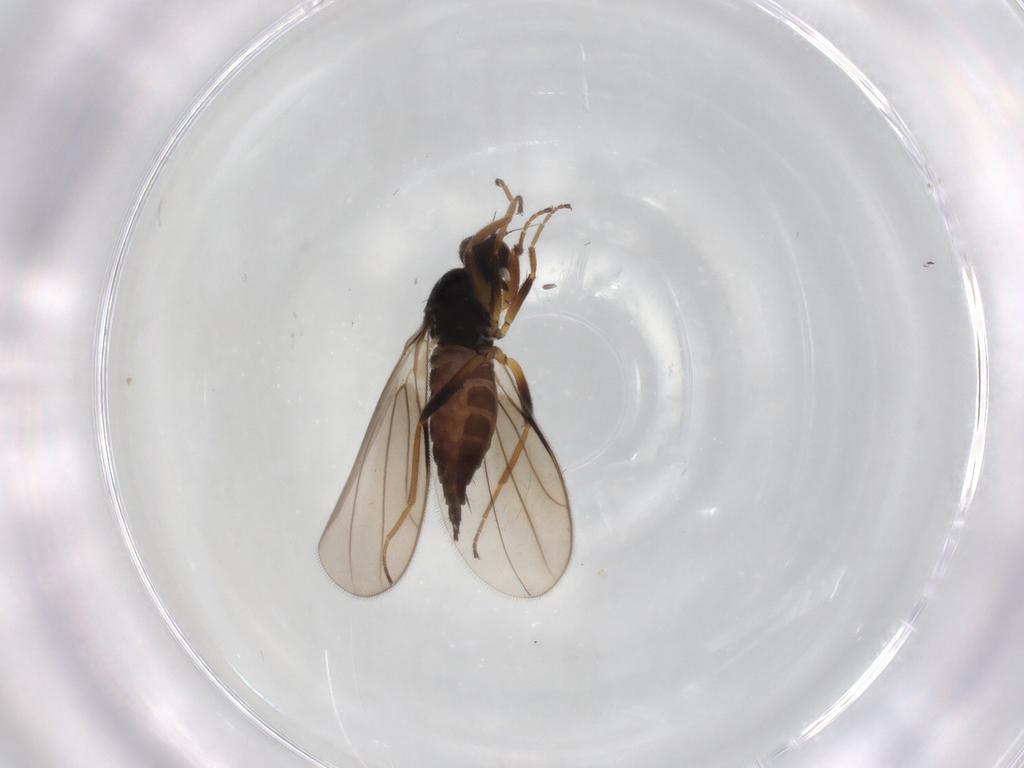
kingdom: Animalia
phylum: Arthropoda
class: Insecta
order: Diptera
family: Hybotidae
